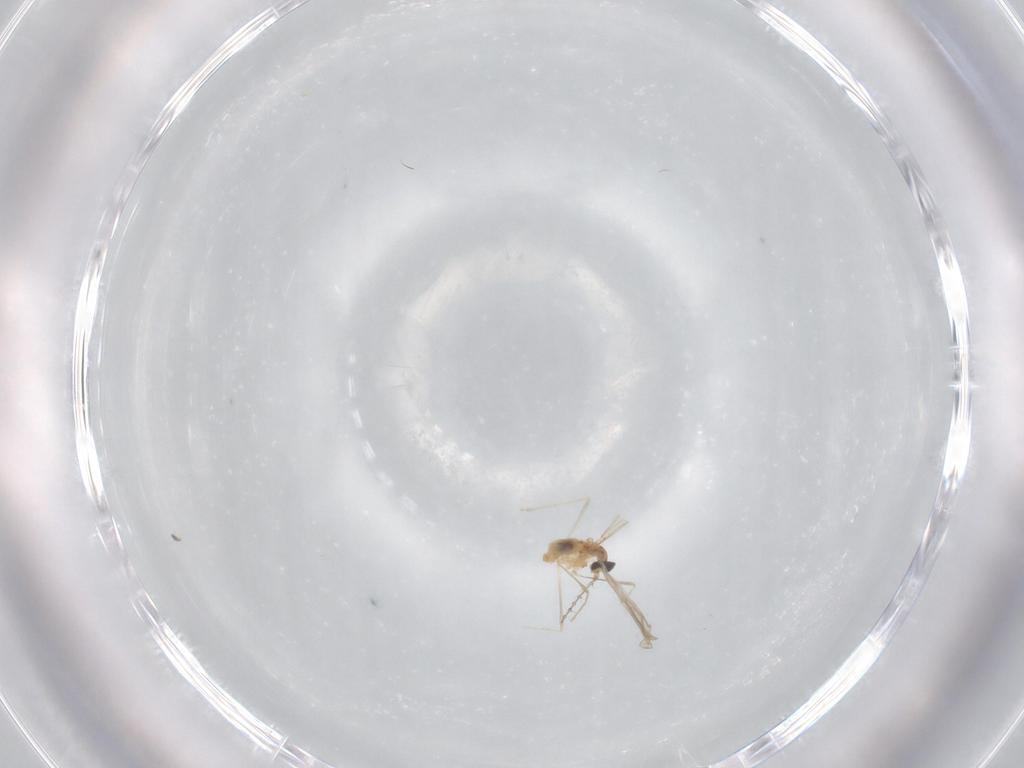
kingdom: Animalia
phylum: Arthropoda
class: Insecta
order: Diptera
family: Cecidomyiidae
